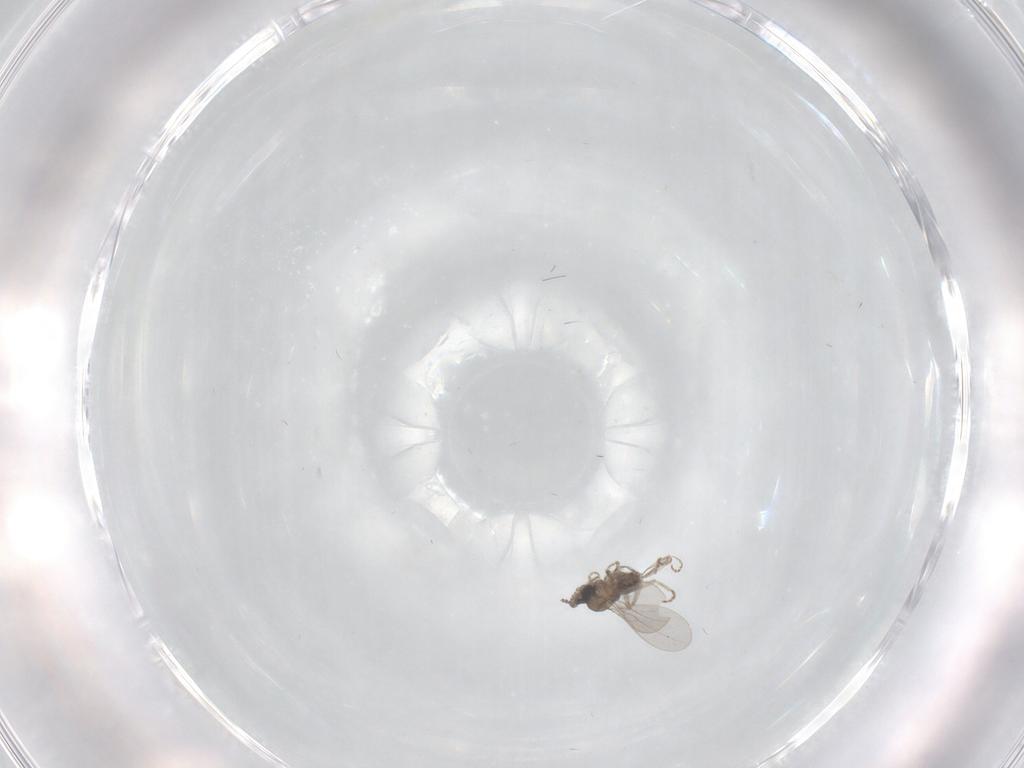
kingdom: Animalia
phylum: Arthropoda
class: Insecta
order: Diptera
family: Cecidomyiidae
